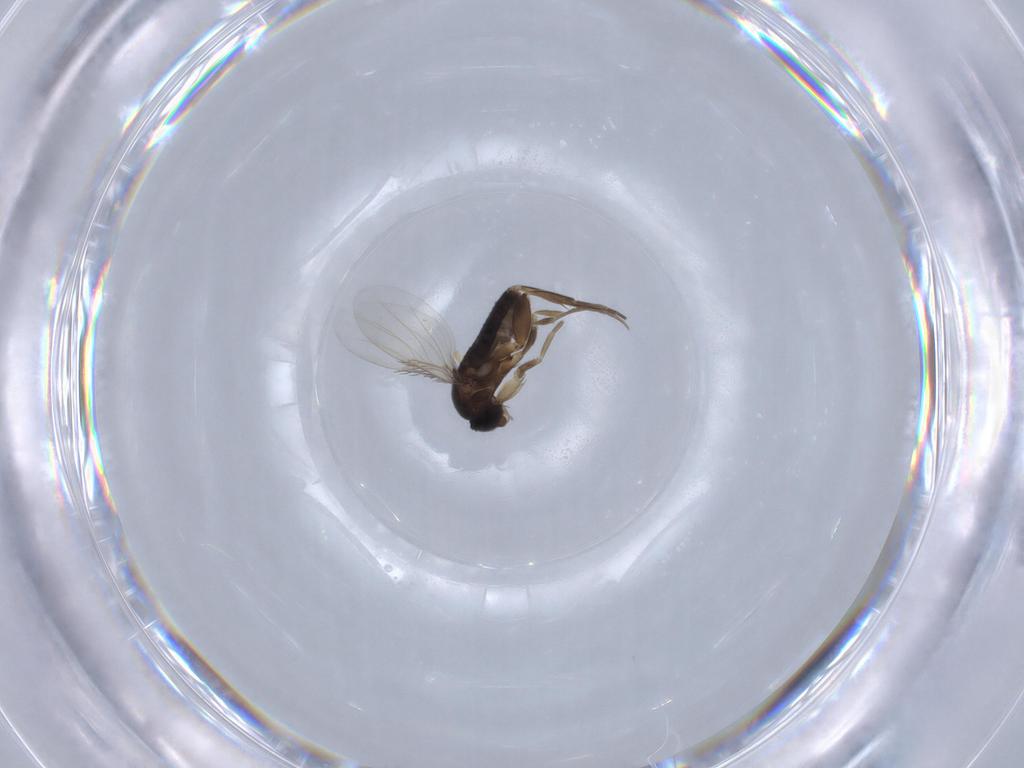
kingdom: Animalia
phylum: Arthropoda
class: Insecta
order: Diptera
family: Phoridae
